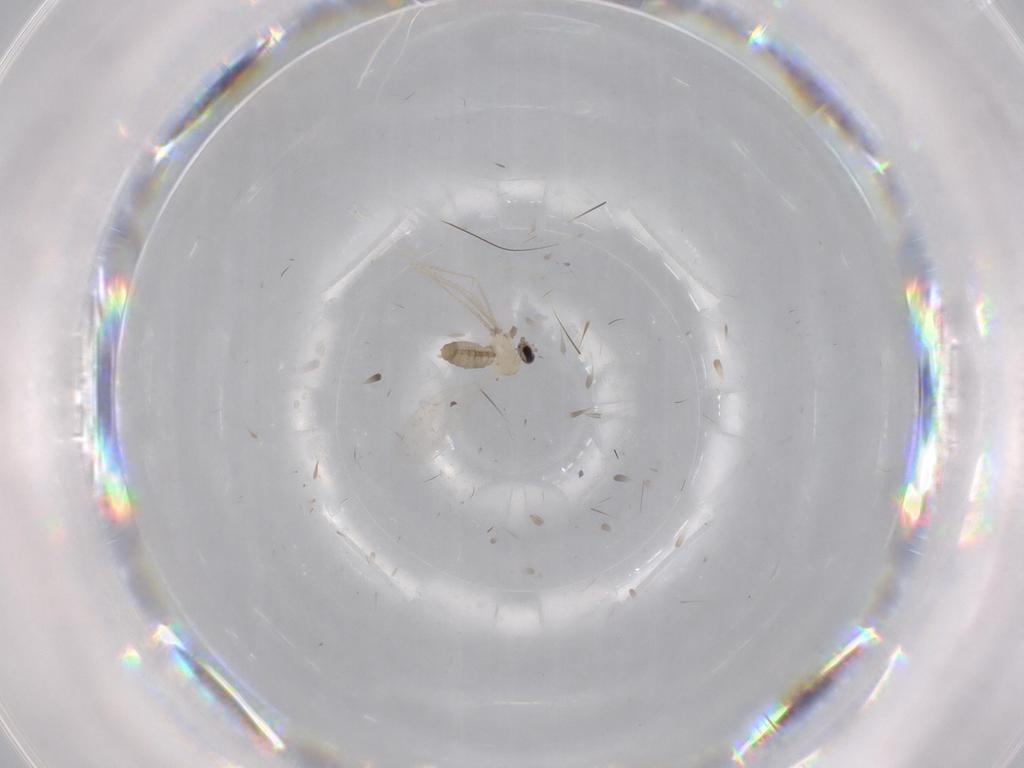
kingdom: Animalia
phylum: Arthropoda
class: Insecta
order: Diptera
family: Cecidomyiidae
